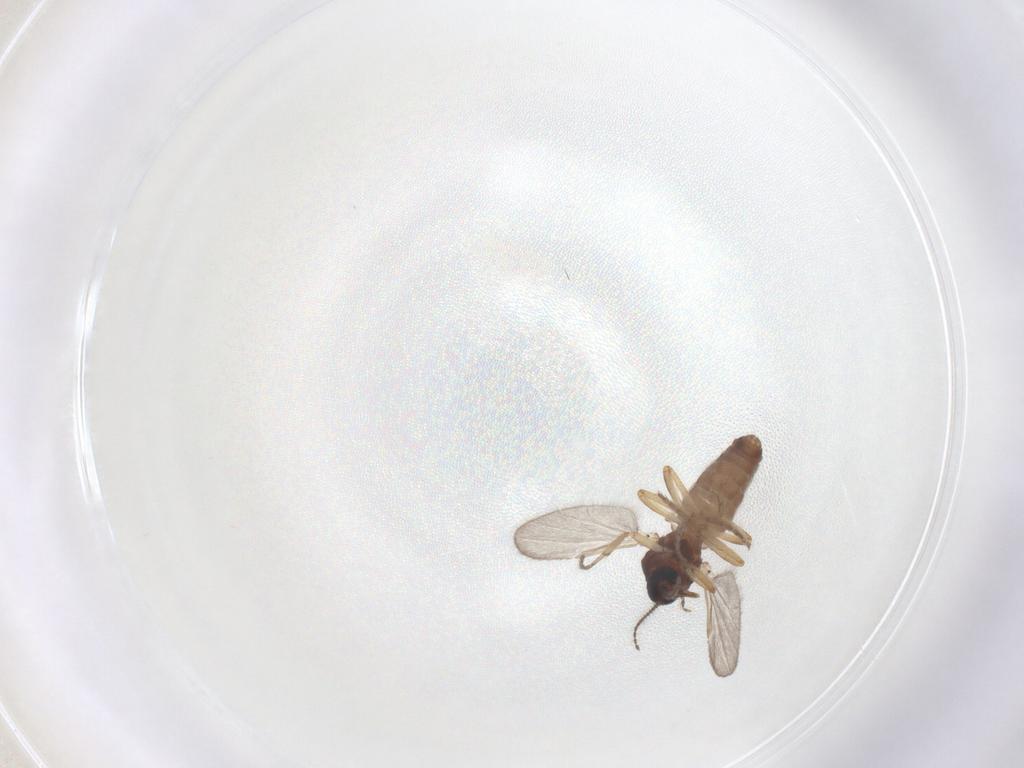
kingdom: Animalia
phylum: Arthropoda
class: Insecta
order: Diptera
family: Ceratopogonidae
